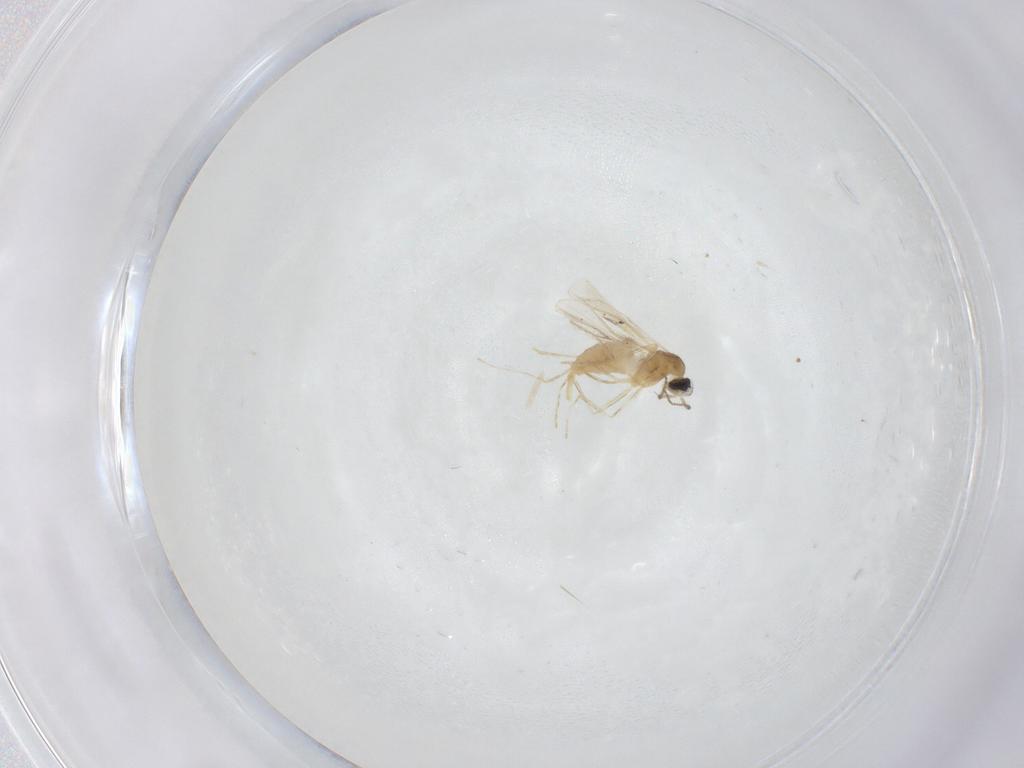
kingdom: Animalia
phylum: Arthropoda
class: Insecta
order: Diptera
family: Cecidomyiidae
